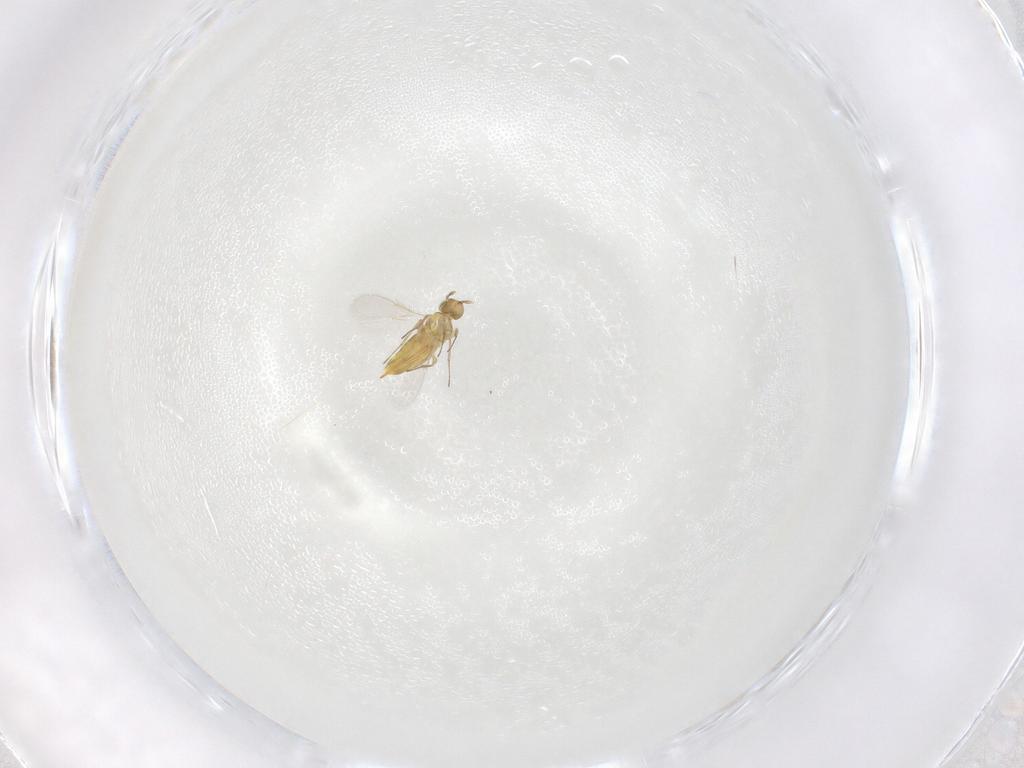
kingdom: Animalia
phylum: Arthropoda
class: Insecta
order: Hymenoptera
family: Aphelinidae
